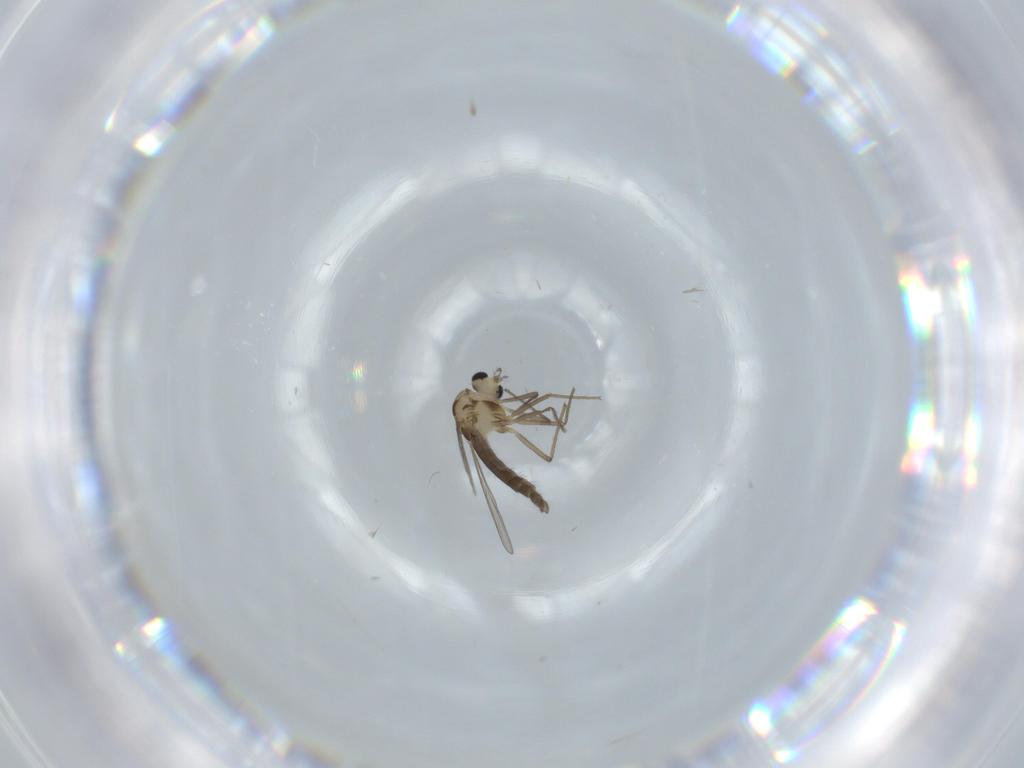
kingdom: Animalia
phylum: Arthropoda
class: Insecta
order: Diptera
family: Chironomidae
